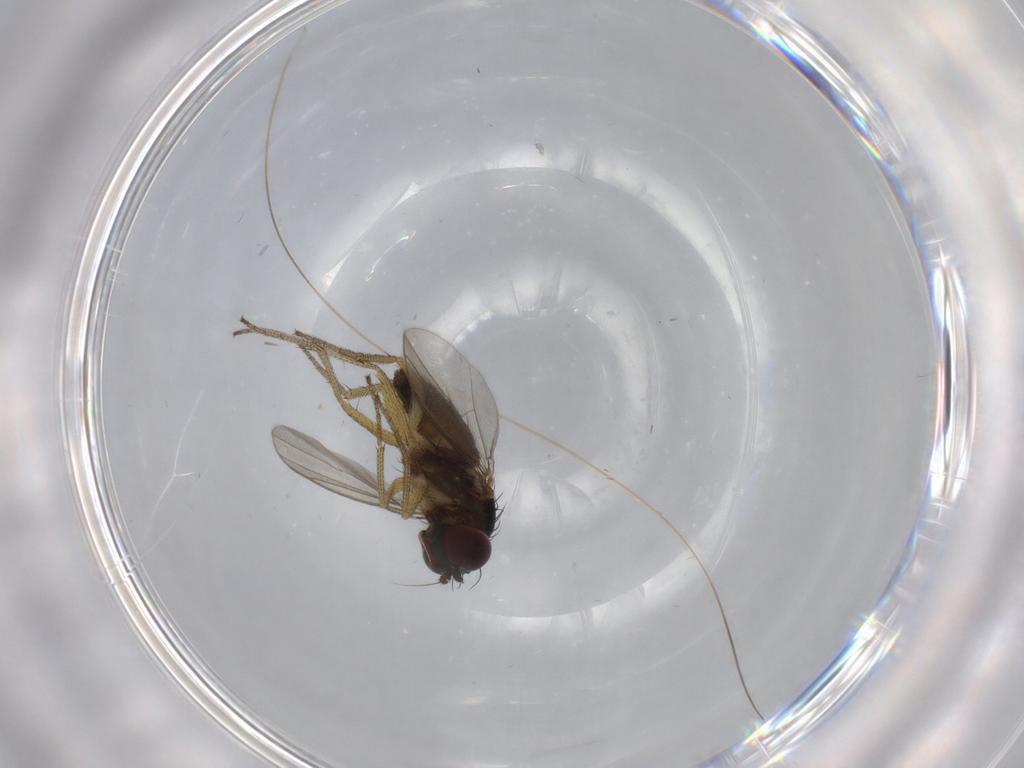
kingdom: Animalia
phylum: Arthropoda
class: Insecta
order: Diptera
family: Dolichopodidae
